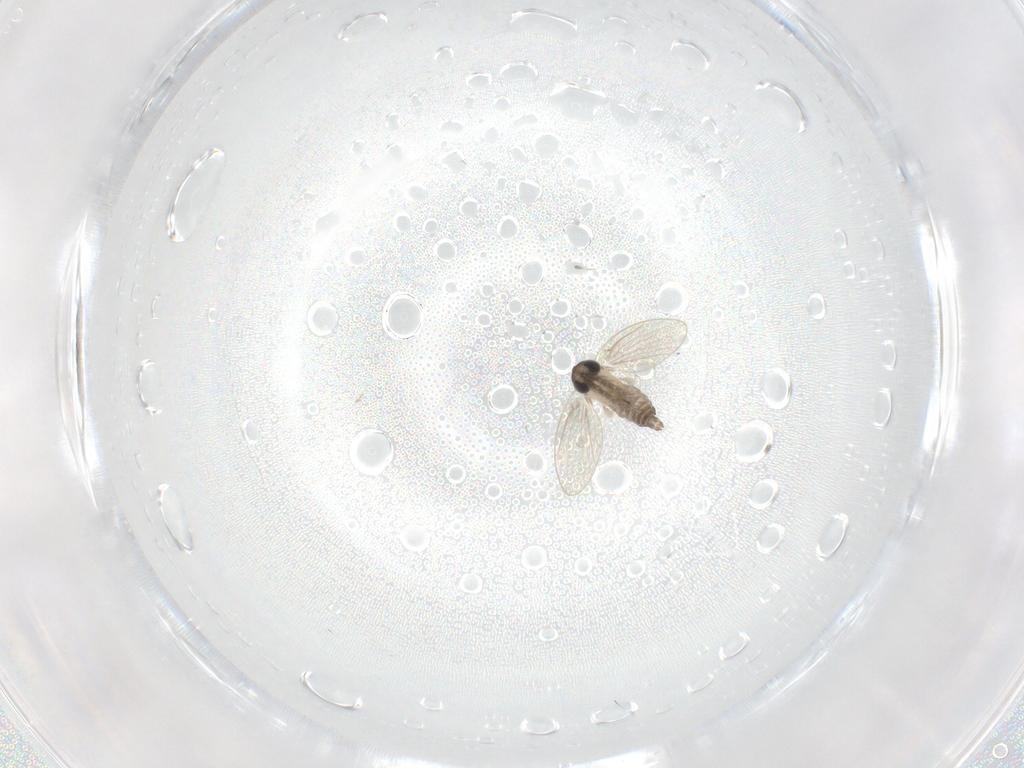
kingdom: Animalia
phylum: Arthropoda
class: Insecta
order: Diptera
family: Psychodidae
